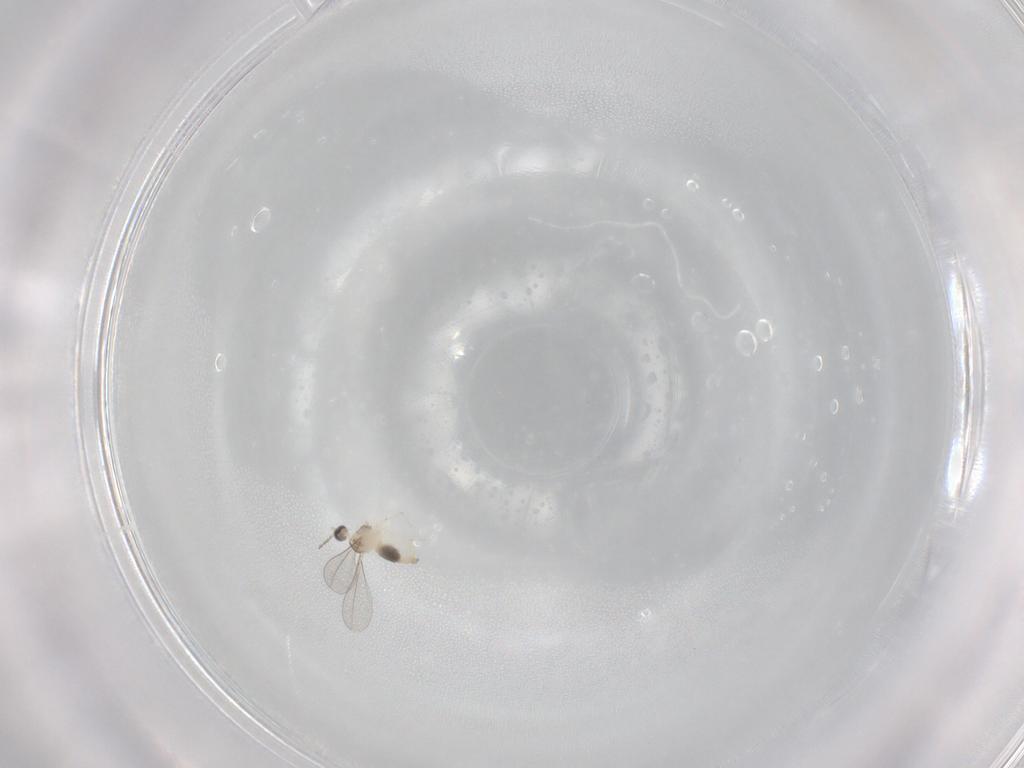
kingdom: Animalia
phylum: Arthropoda
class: Insecta
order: Diptera
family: Cecidomyiidae
